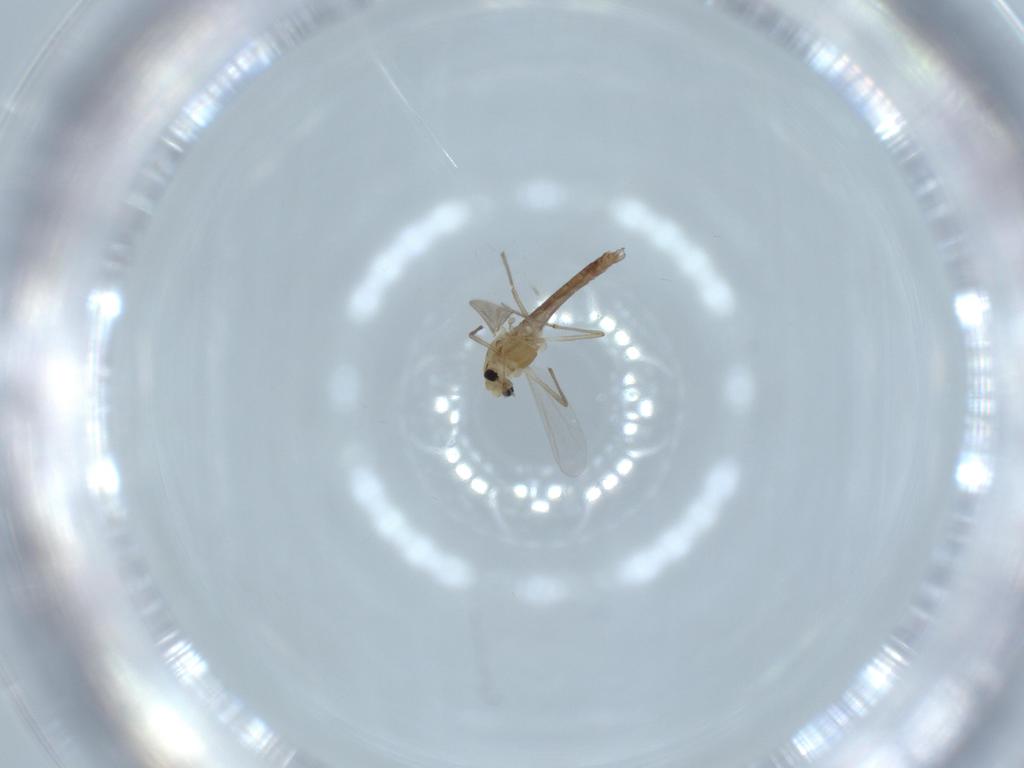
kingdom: Animalia
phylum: Arthropoda
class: Insecta
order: Diptera
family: Chironomidae
